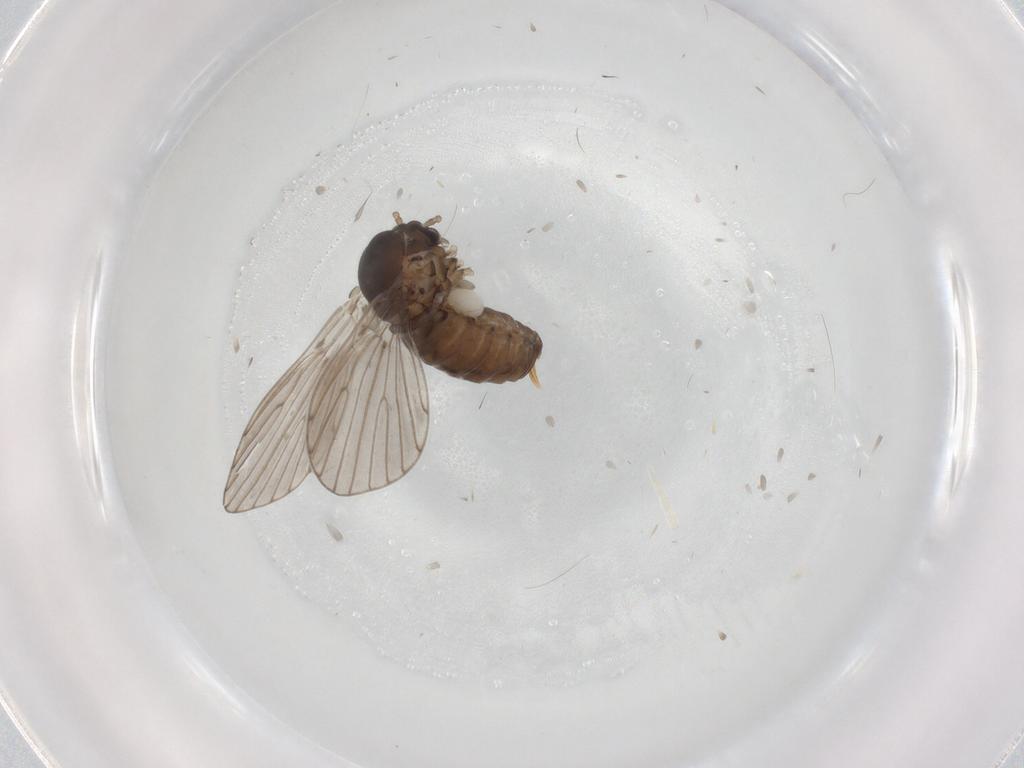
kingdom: Animalia
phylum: Arthropoda
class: Insecta
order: Diptera
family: Psychodidae
